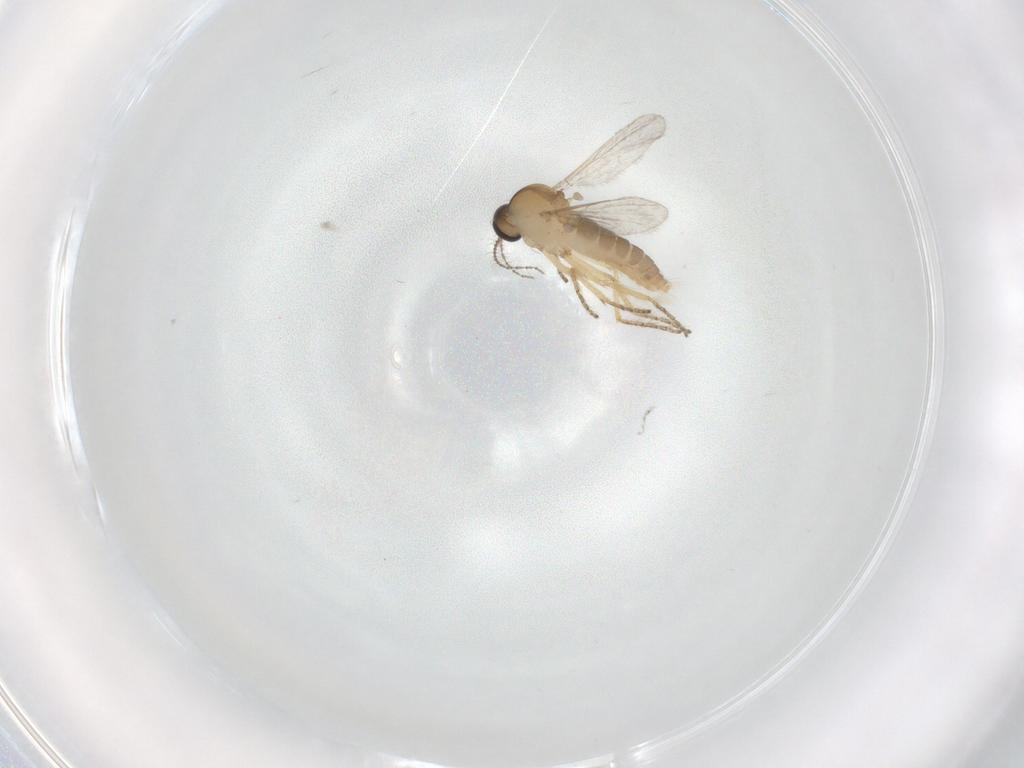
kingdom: Animalia
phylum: Arthropoda
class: Insecta
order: Diptera
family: Ceratopogonidae
